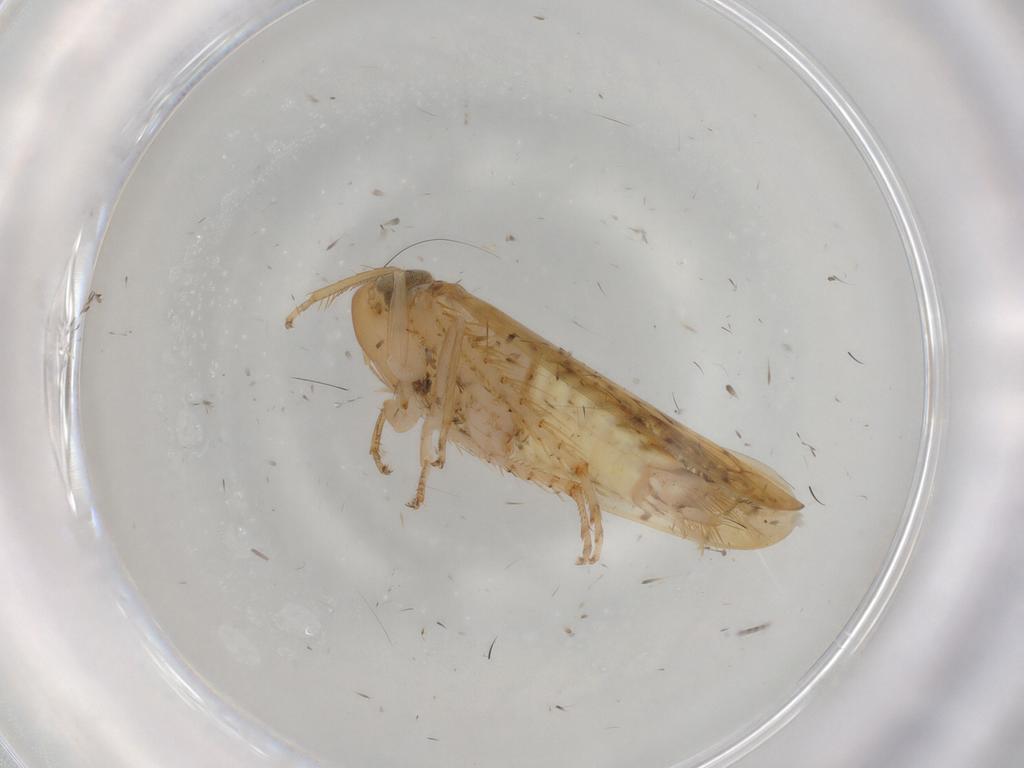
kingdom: Animalia
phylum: Arthropoda
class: Insecta
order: Hemiptera
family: Cicadellidae
